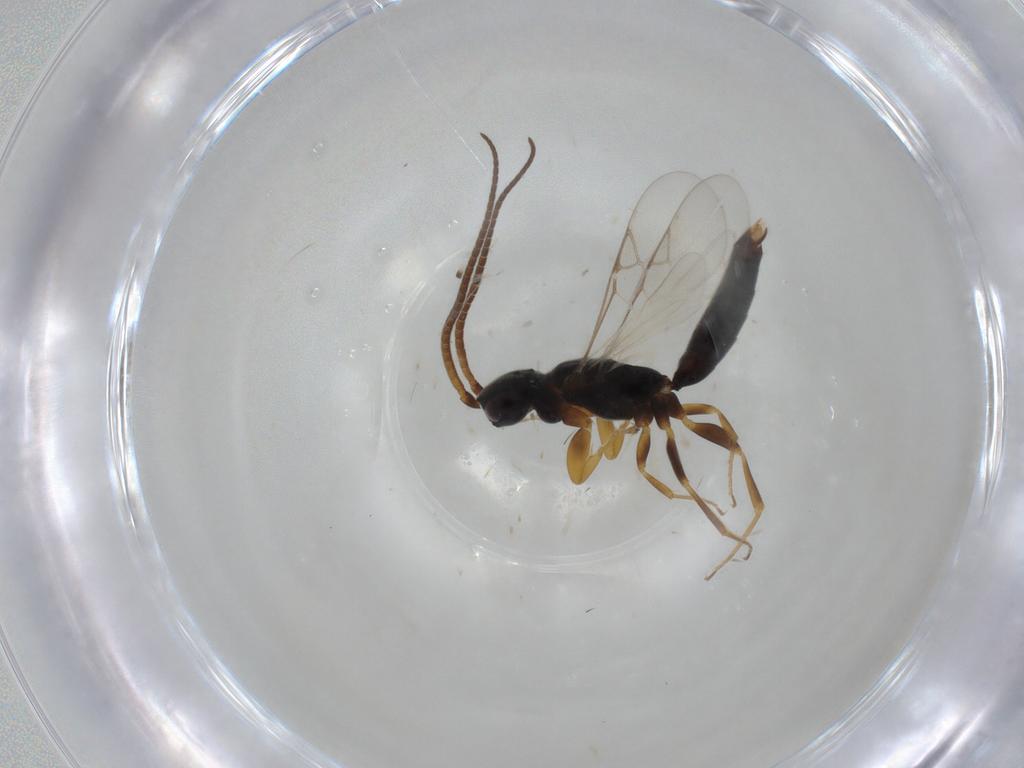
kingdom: Animalia
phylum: Arthropoda
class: Insecta
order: Hymenoptera
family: Sclerogibbidae
